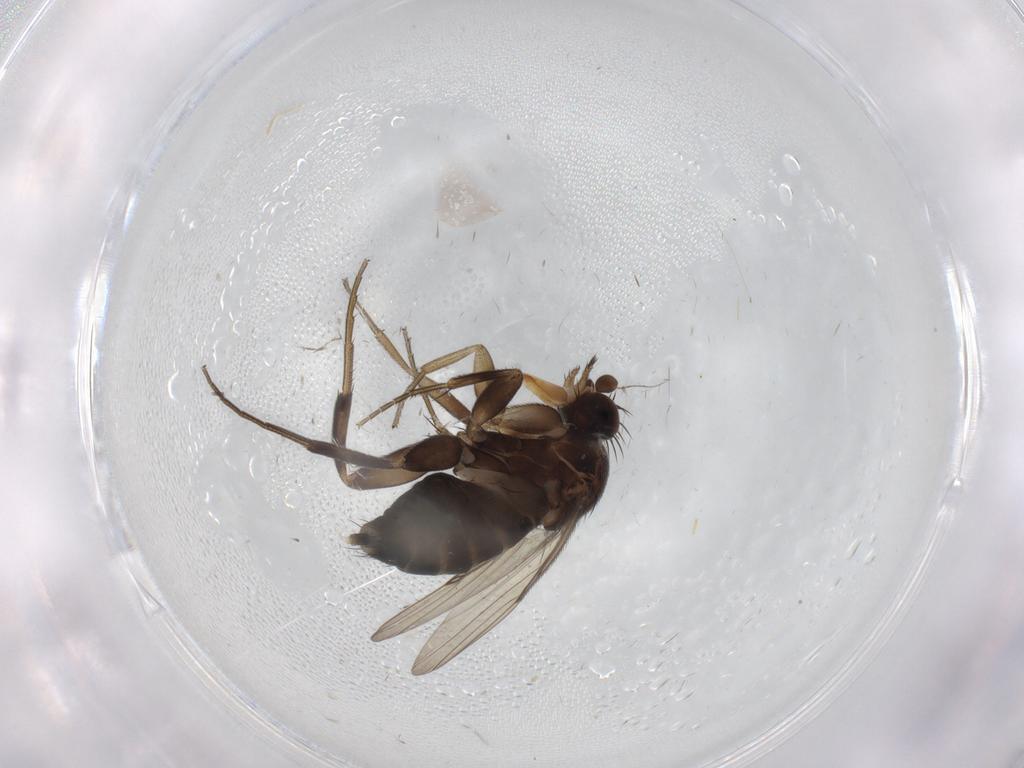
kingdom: Animalia
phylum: Arthropoda
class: Insecta
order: Diptera
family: Phoridae
